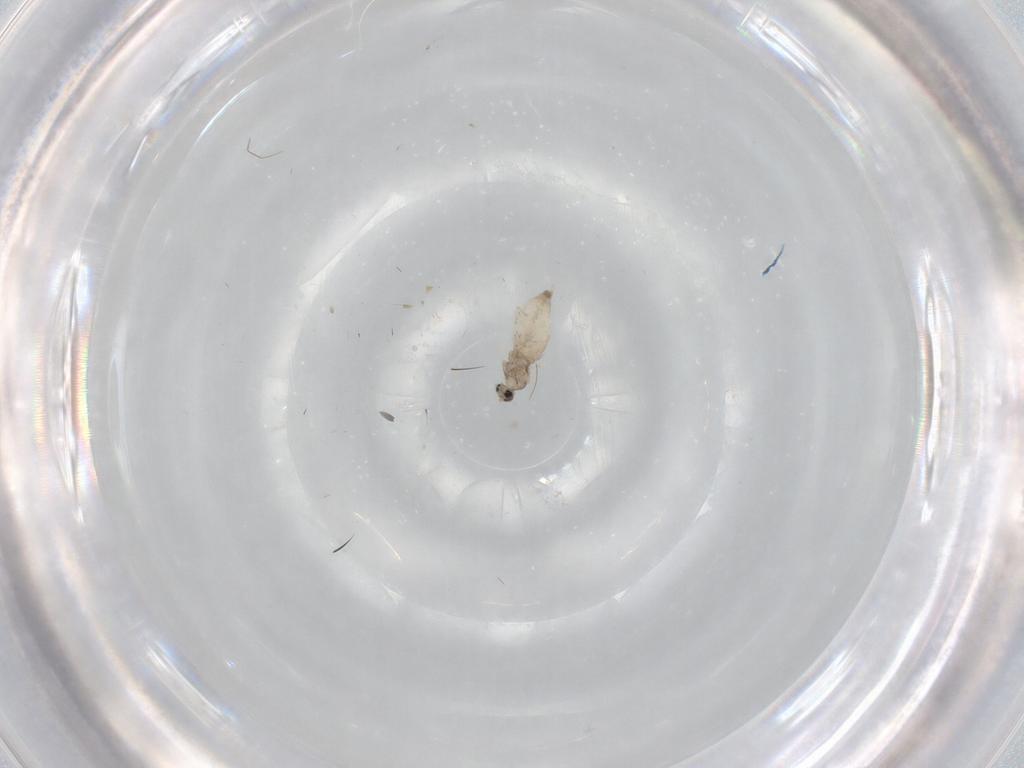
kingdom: Animalia
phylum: Arthropoda
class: Insecta
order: Diptera
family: Cecidomyiidae
